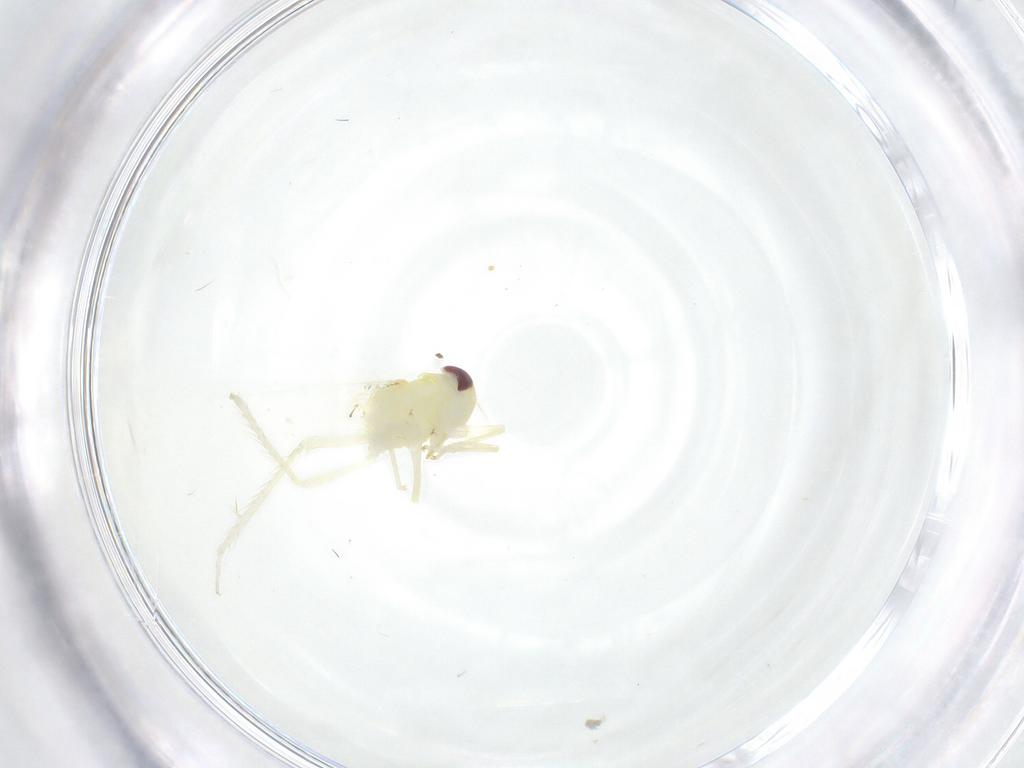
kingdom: Animalia
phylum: Arthropoda
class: Insecta
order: Hemiptera
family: Cicadellidae
